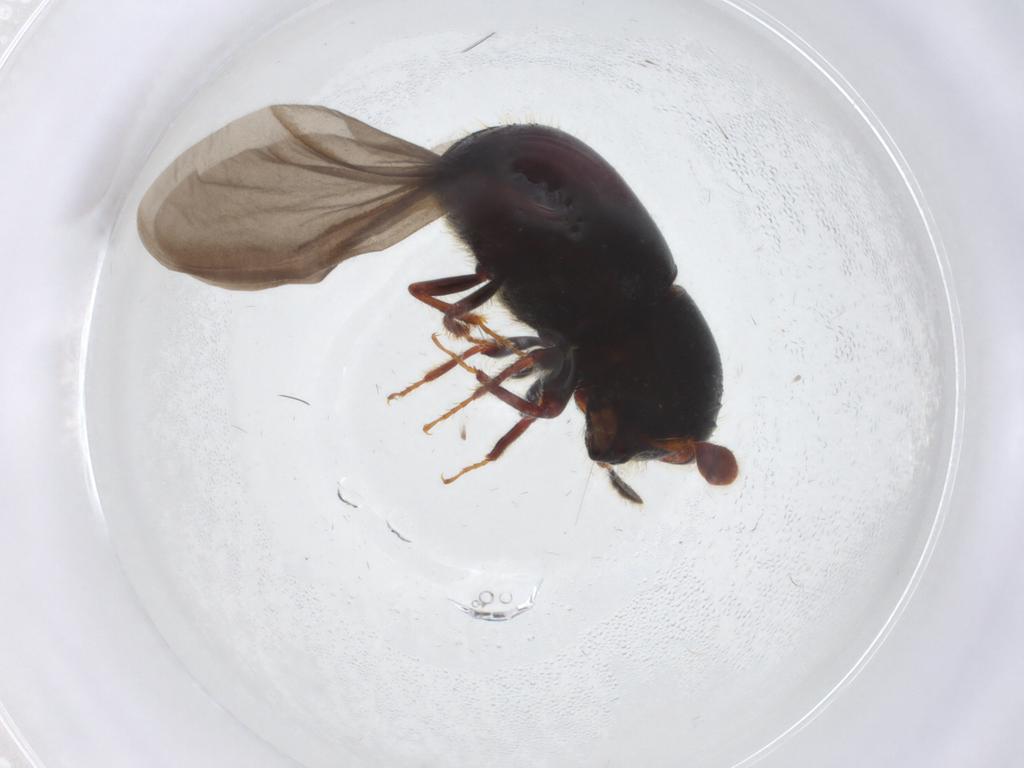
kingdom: Animalia
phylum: Arthropoda
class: Insecta
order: Coleoptera
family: Curculionidae
